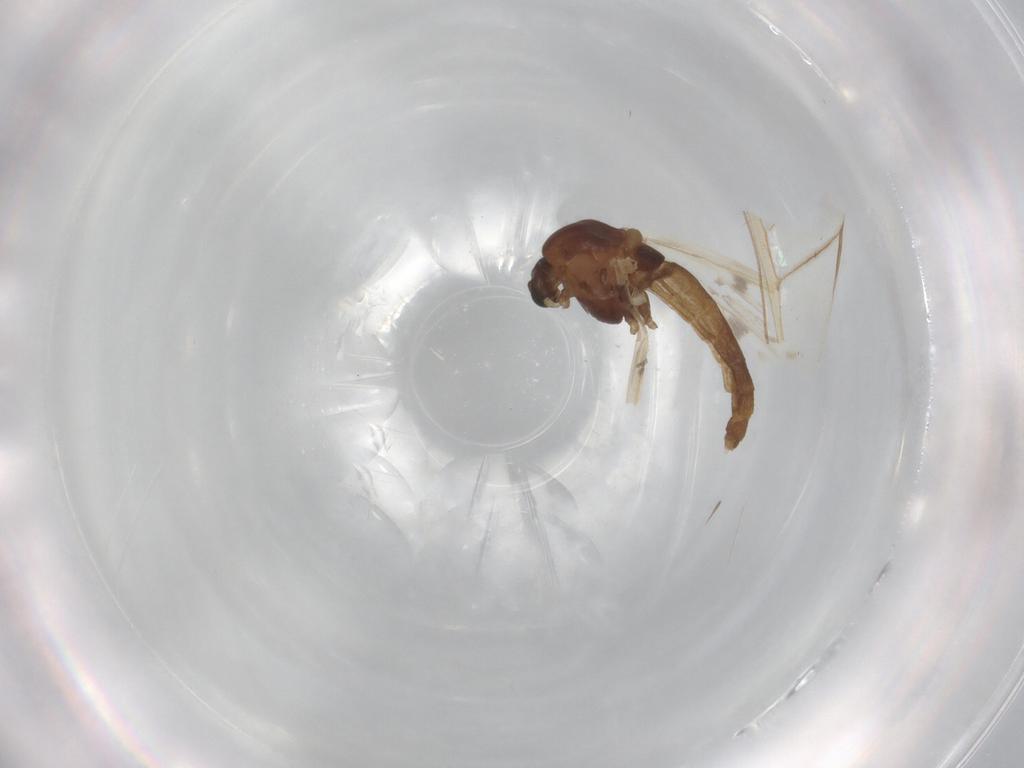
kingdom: Animalia
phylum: Arthropoda
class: Insecta
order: Diptera
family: Chironomidae
